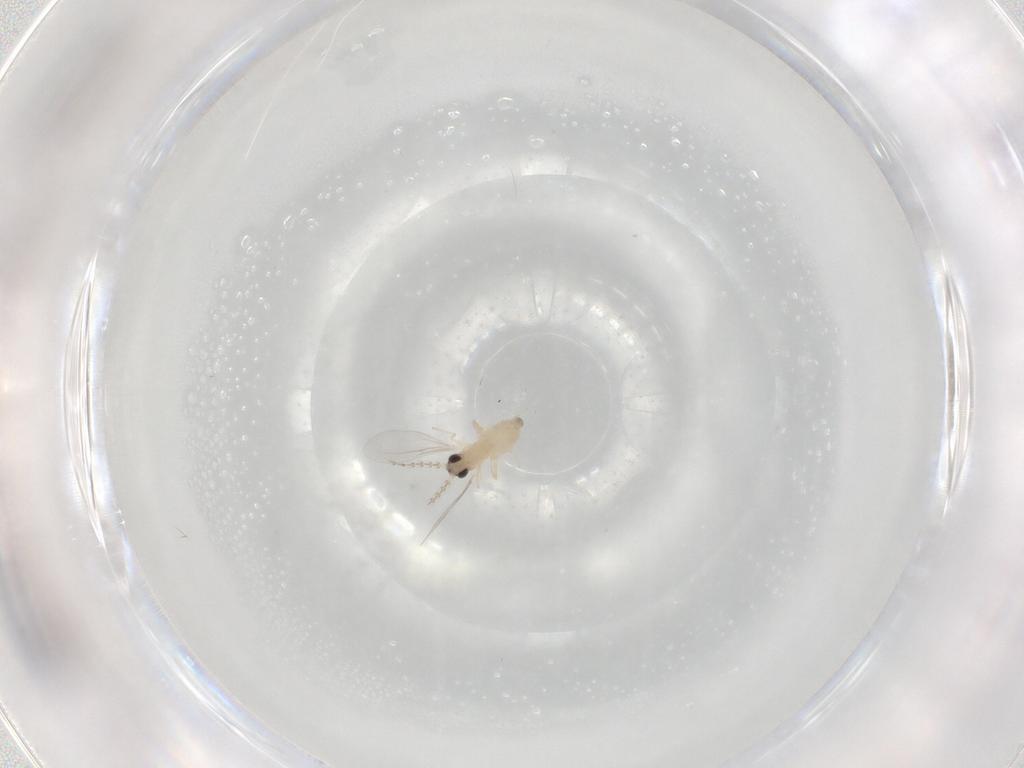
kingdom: Animalia
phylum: Arthropoda
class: Insecta
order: Diptera
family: Cecidomyiidae
